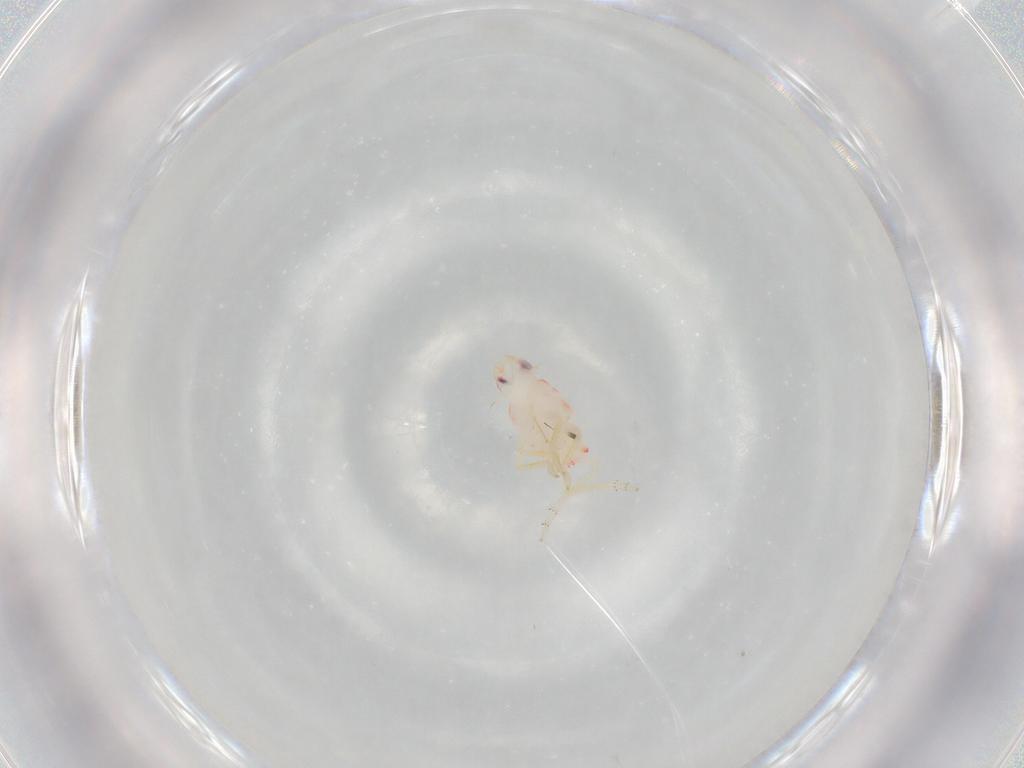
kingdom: Animalia
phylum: Arthropoda
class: Insecta
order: Hemiptera
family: Tropiduchidae
